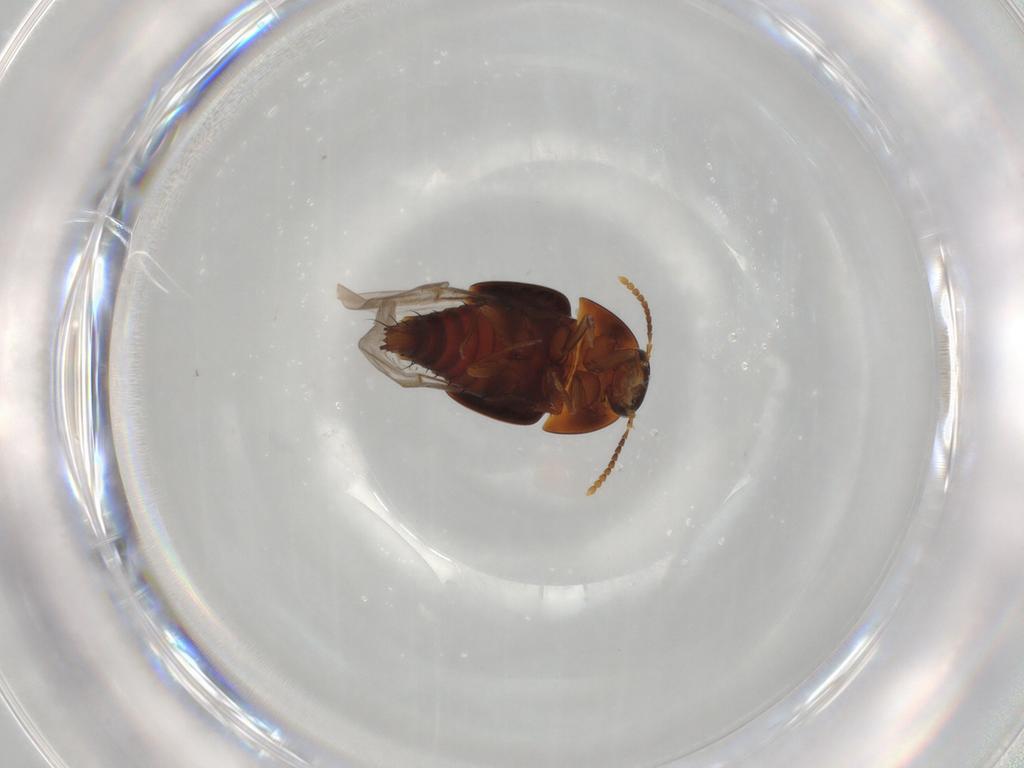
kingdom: Animalia
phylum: Arthropoda
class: Insecta
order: Coleoptera
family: Staphylinidae
